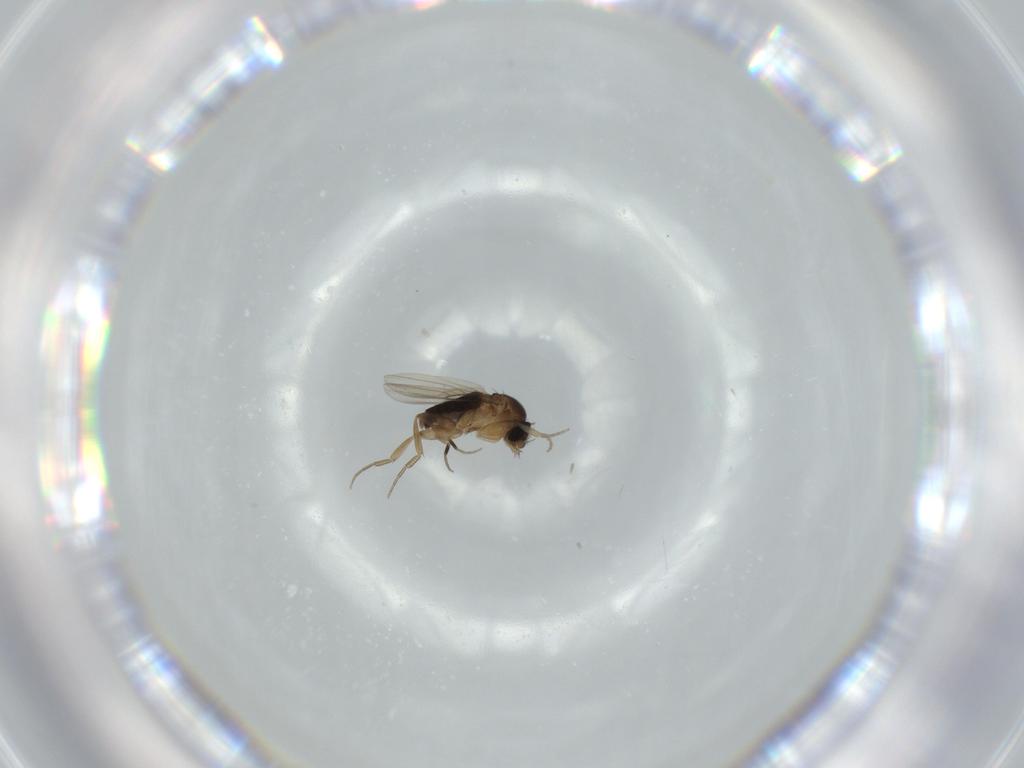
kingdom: Animalia
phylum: Arthropoda
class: Insecta
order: Diptera
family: Phoridae
